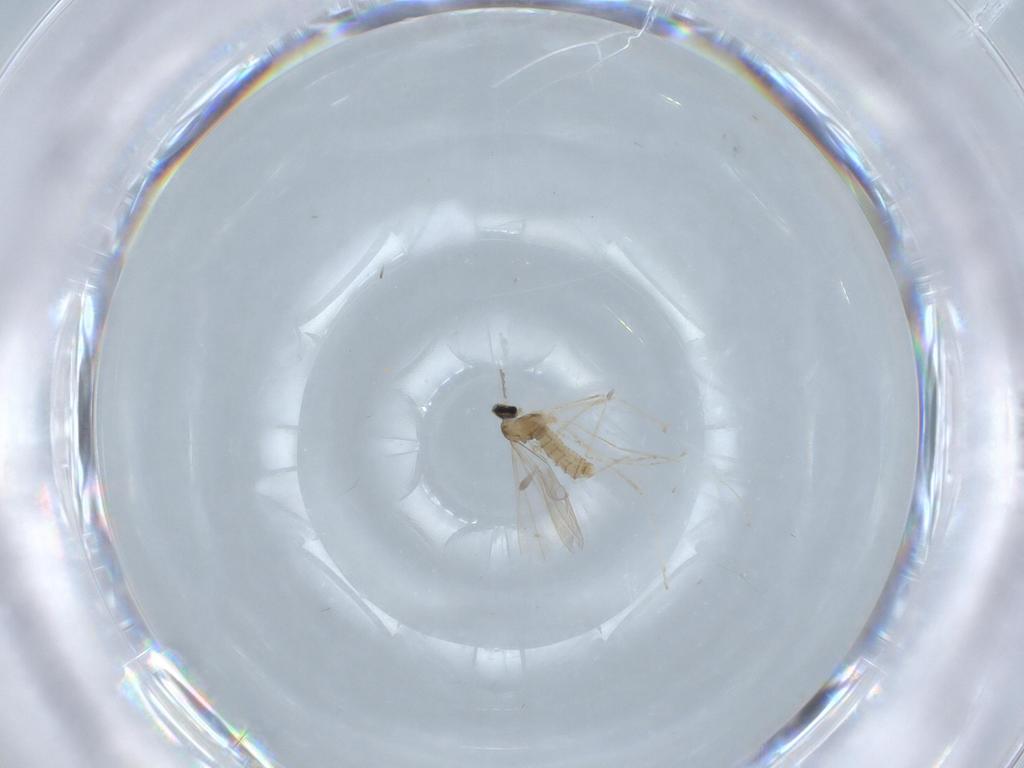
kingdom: Animalia
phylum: Arthropoda
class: Insecta
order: Diptera
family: Cecidomyiidae
